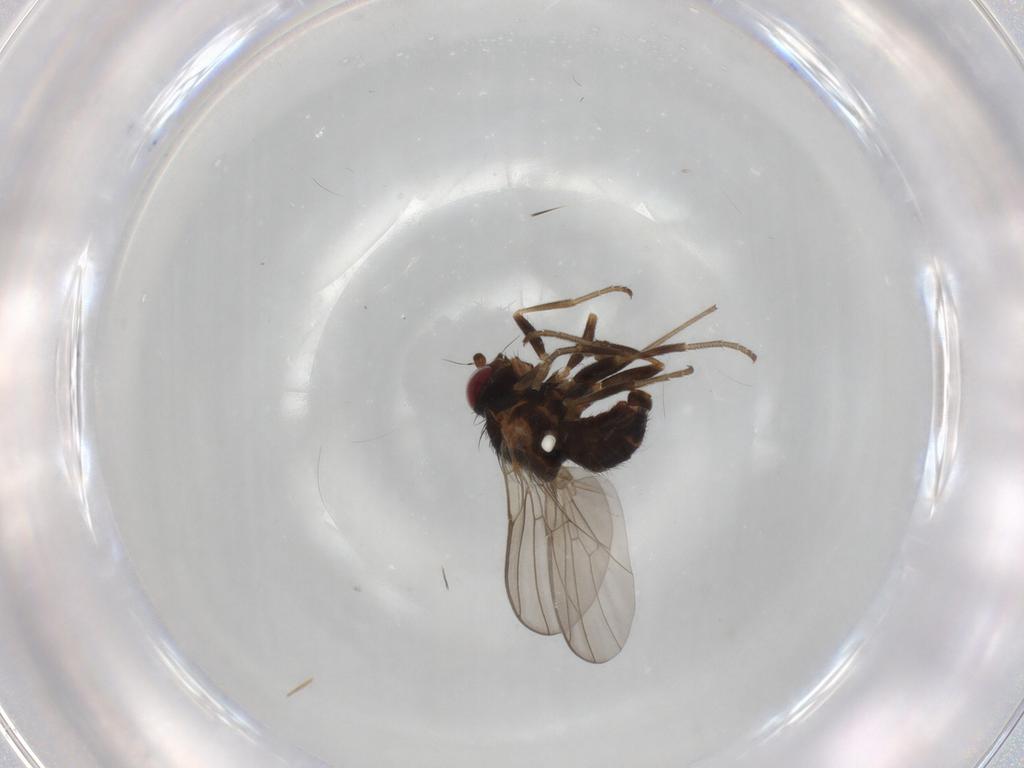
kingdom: Animalia
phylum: Arthropoda
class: Insecta
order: Diptera
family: Agromyzidae
